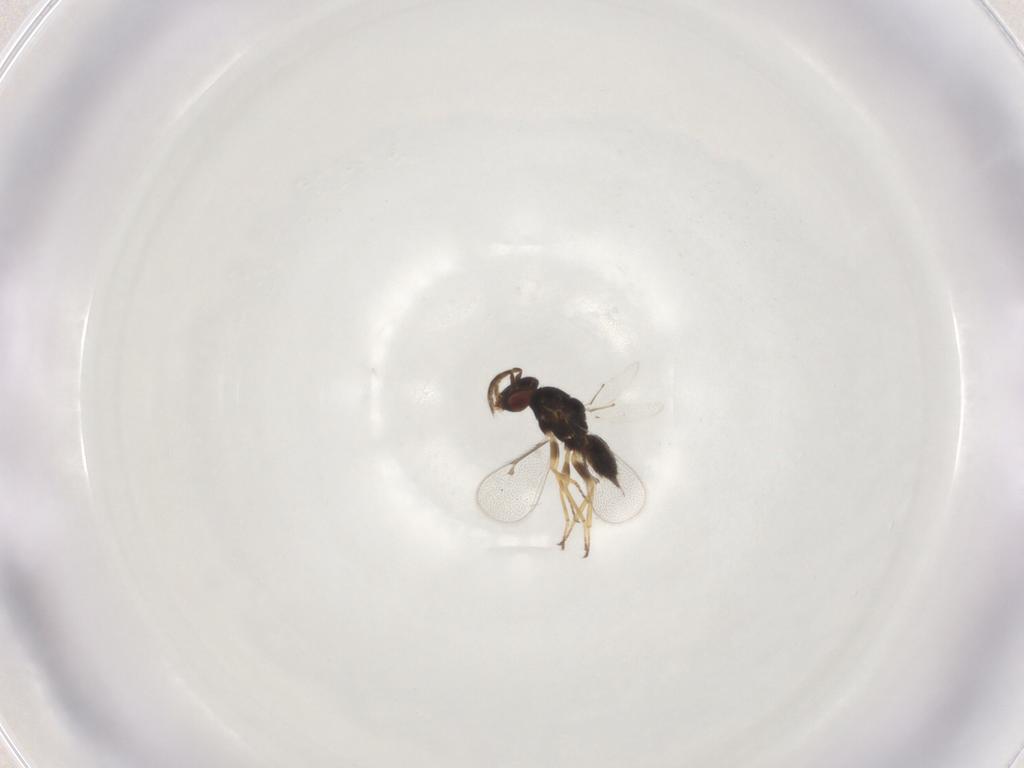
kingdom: Animalia
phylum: Arthropoda
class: Insecta
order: Hymenoptera
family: Eulophidae
